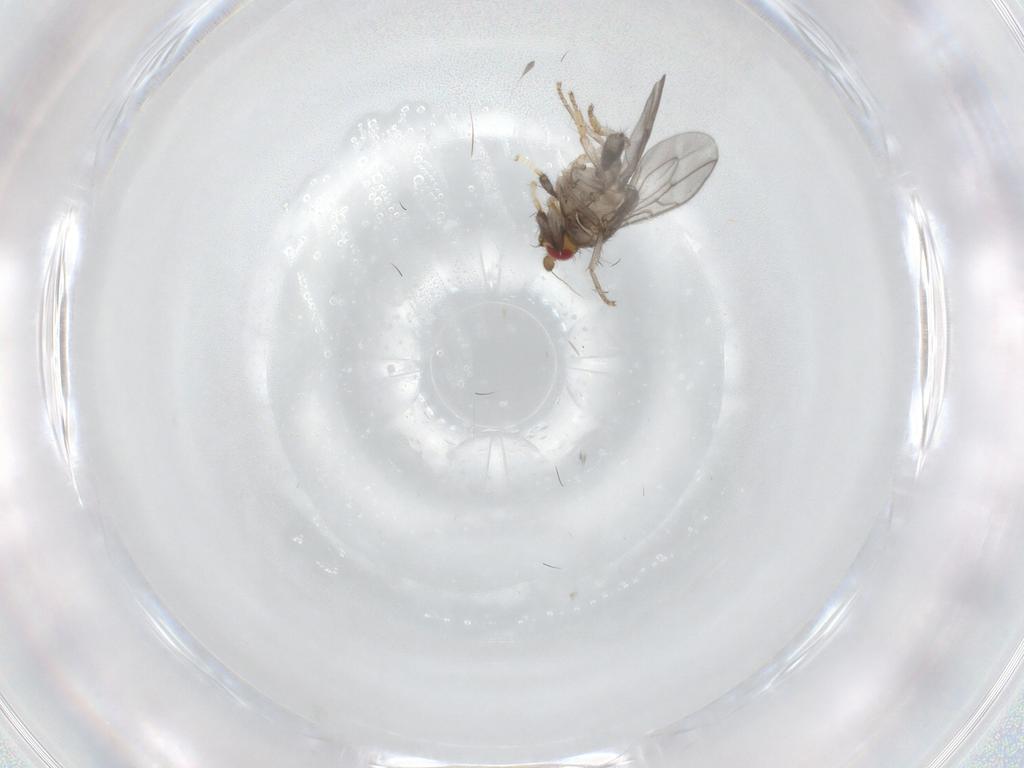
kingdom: Animalia
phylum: Arthropoda
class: Insecta
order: Diptera
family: Sphaeroceridae
